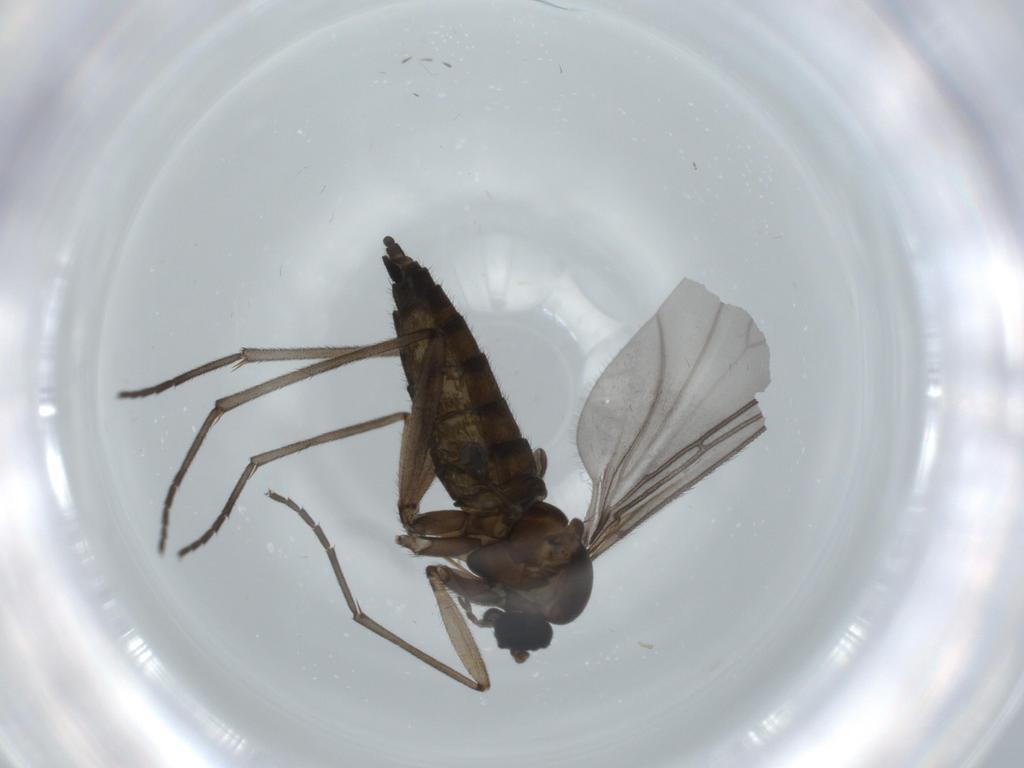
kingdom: Animalia
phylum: Arthropoda
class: Insecta
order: Diptera
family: Sciaridae
